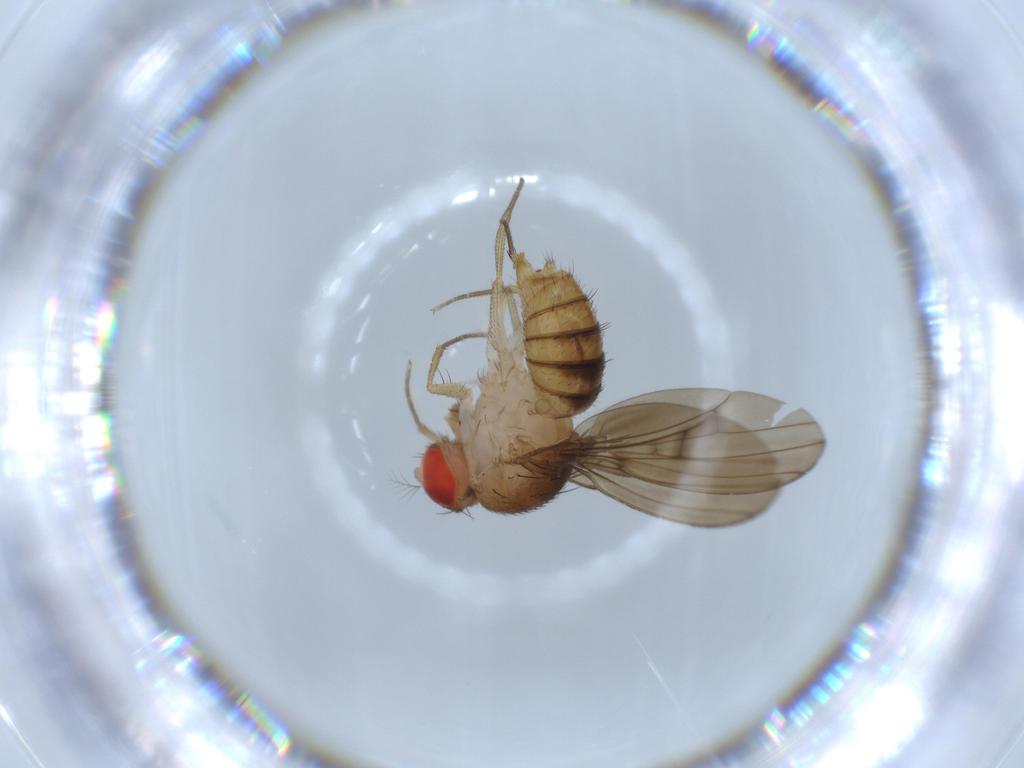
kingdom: Animalia
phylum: Arthropoda
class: Insecta
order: Diptera
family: Drosophilidae
